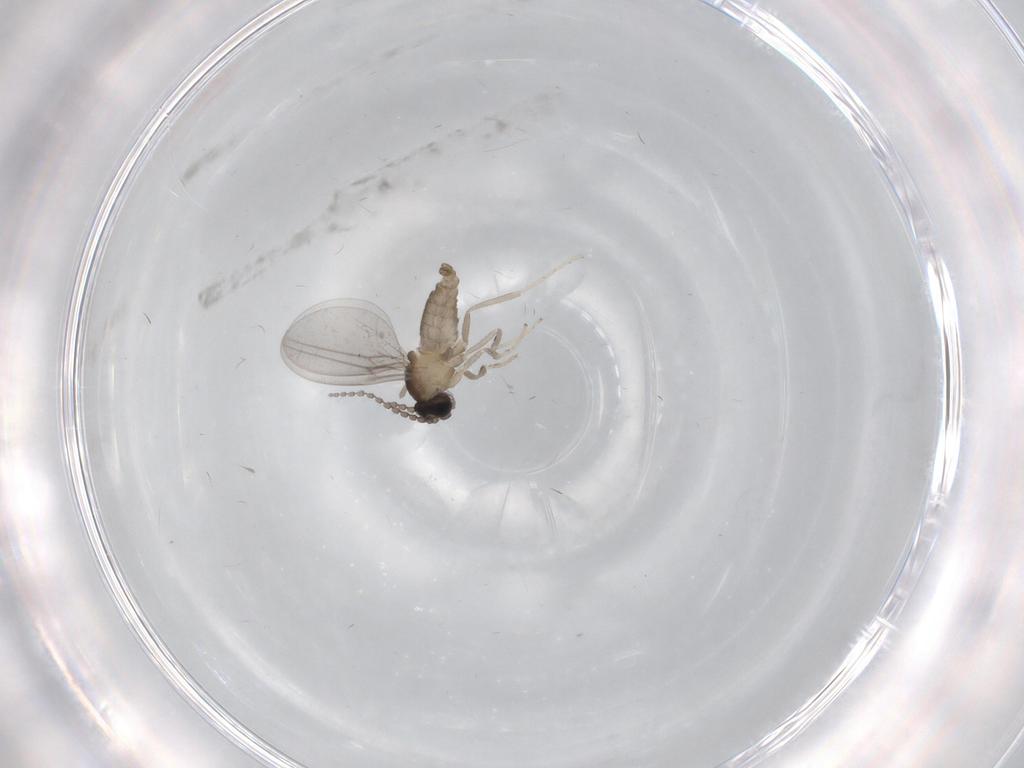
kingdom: Animalia
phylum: Arthropoda
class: Insecta
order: Diptera
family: Cecidomyiidae
